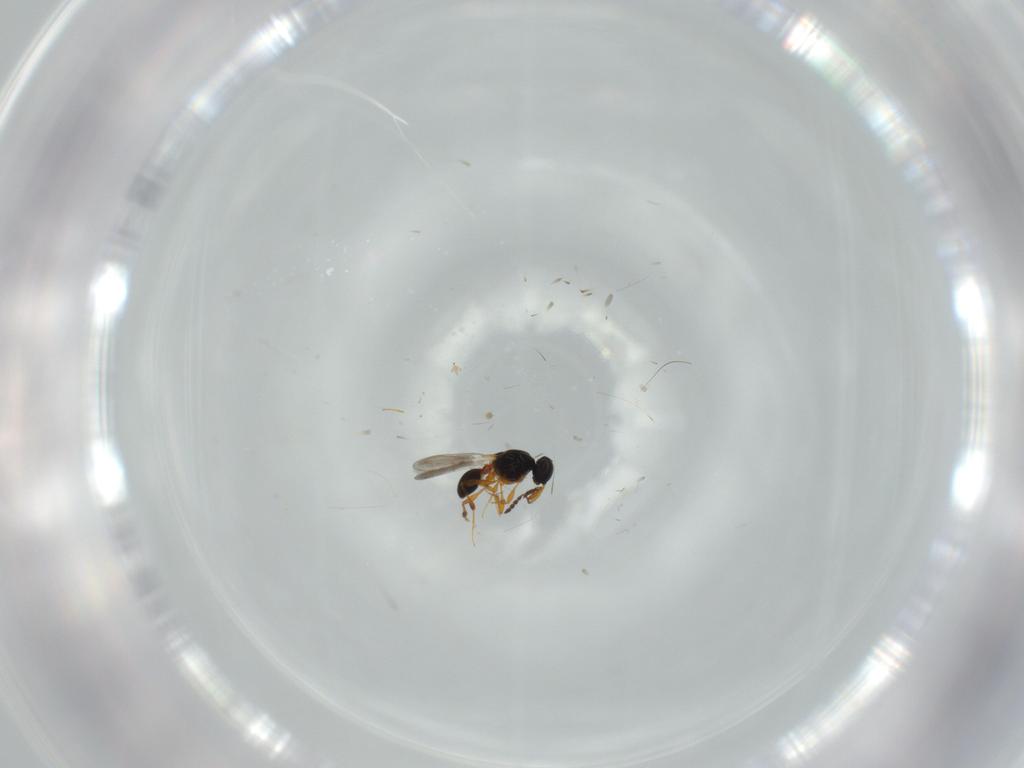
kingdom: Animalia
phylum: Arthropoda
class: Insecta
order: Hymenoptera
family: Platygastridae
